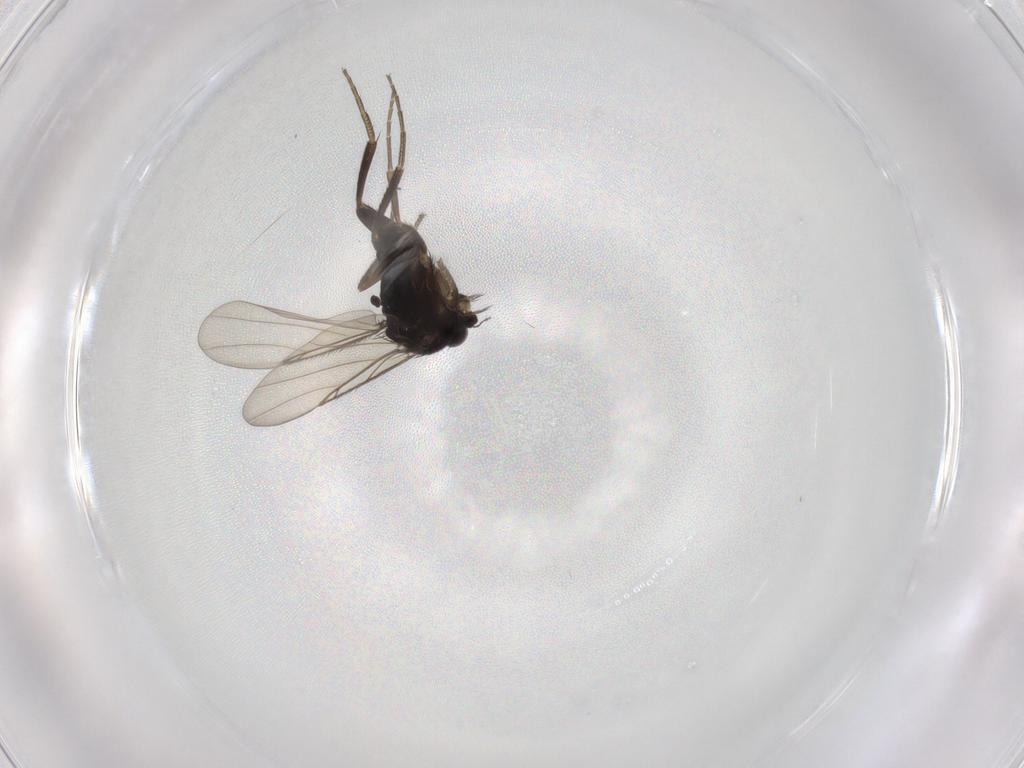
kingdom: Animalia
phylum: Arthropoda
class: Insecta
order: Diptera
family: Phoridae
